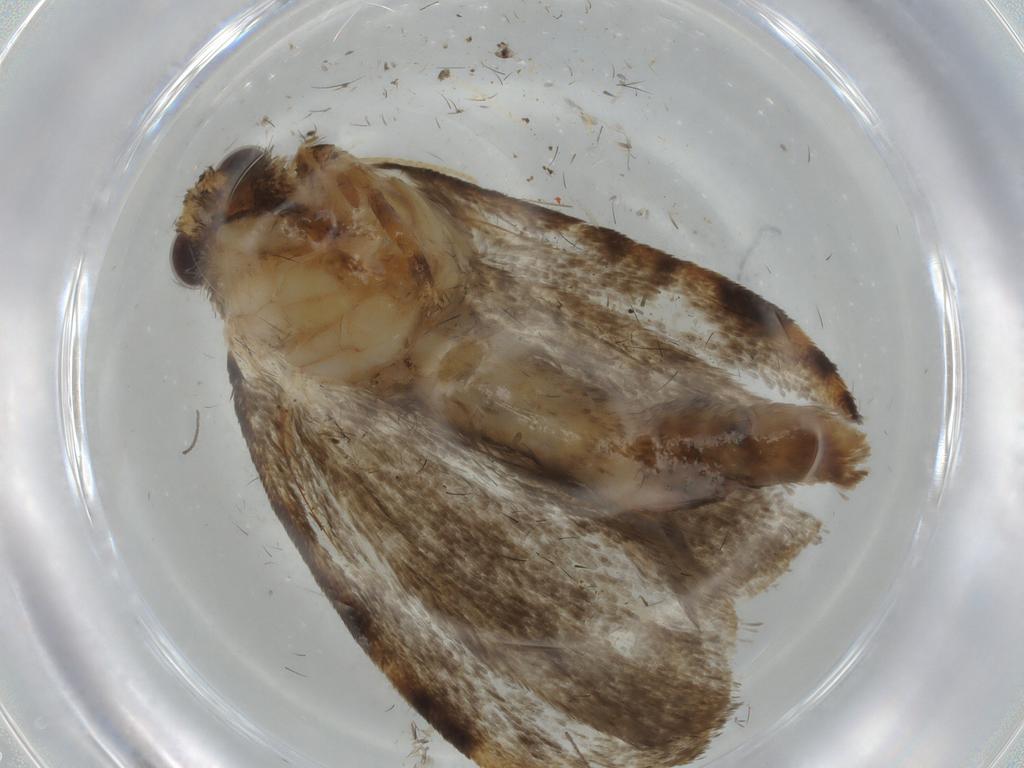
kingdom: Animalia
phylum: Arthropoda
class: Insecta
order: Lepidoptera
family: Tineidae
